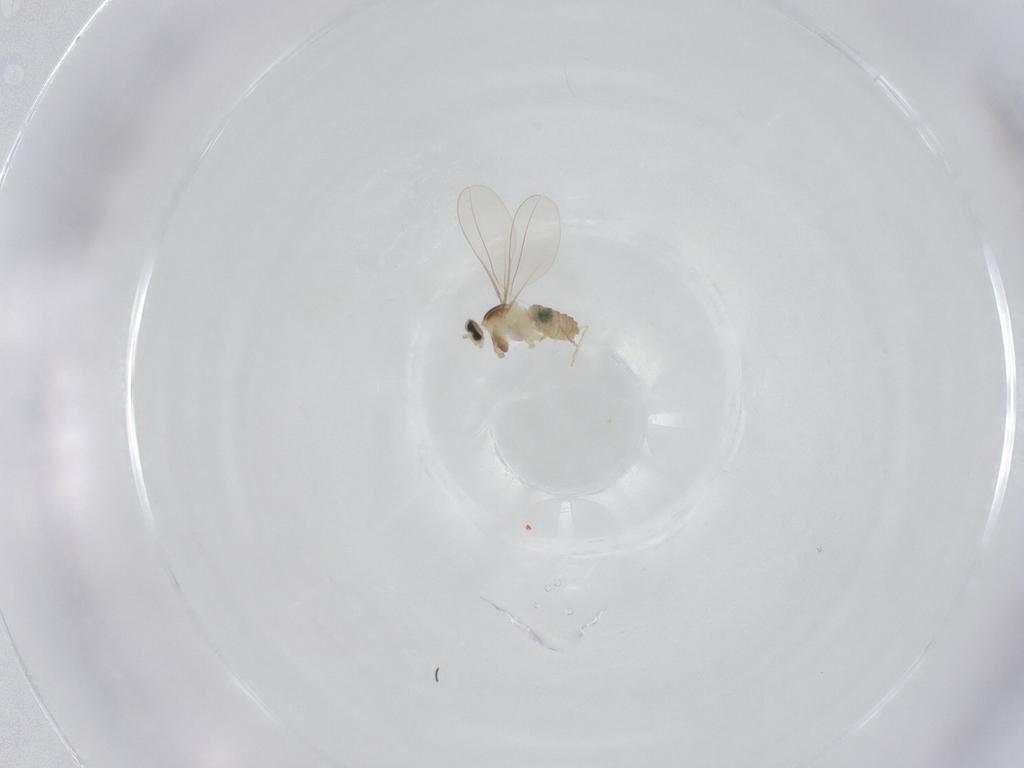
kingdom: Animalia
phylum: Arthropoda
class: Insecta
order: Diptera
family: Cecidomyiidae
